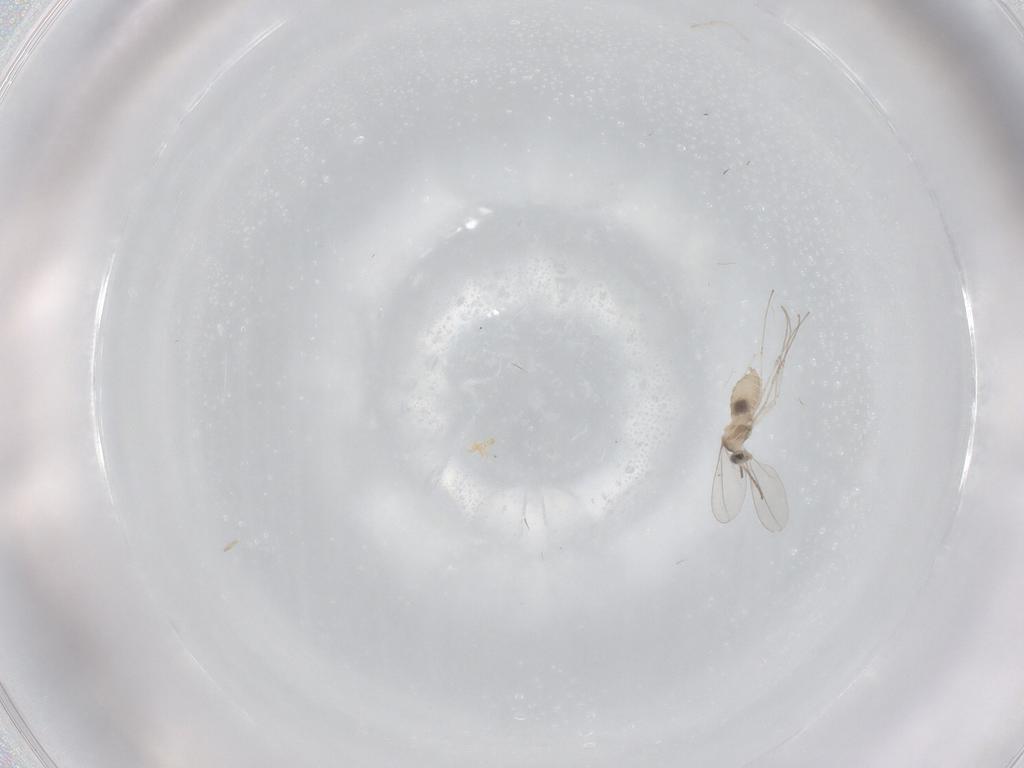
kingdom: Animalia
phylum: Arthropoda
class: Insecta
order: Diptera
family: Cecidomyiidae
